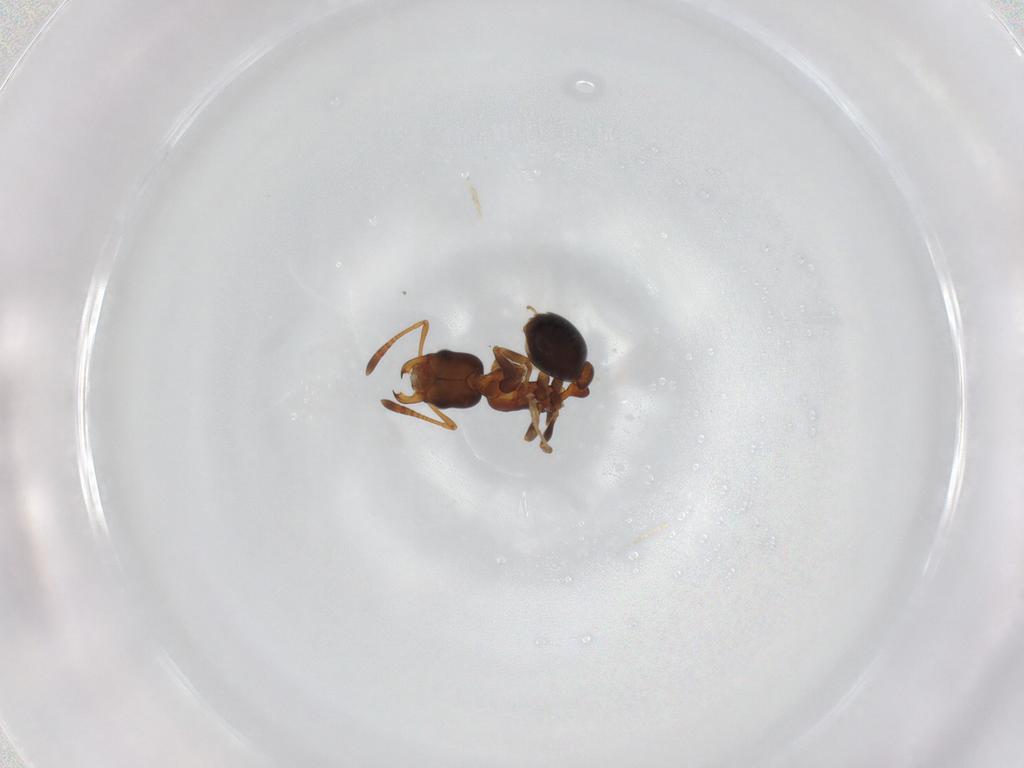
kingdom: Animalia
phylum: Arthropoda
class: Insecta
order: Hymenoptera
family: Formicidae
